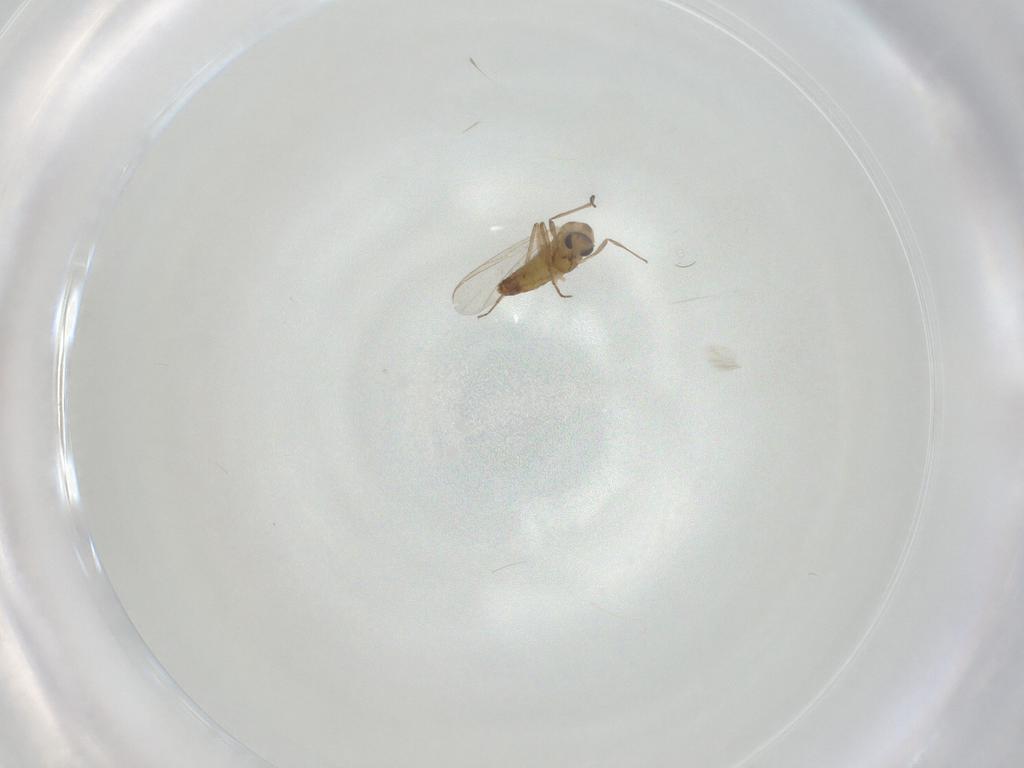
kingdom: Animalia
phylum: Arthropoda
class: Insecta
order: Diptera
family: Chironomidae
